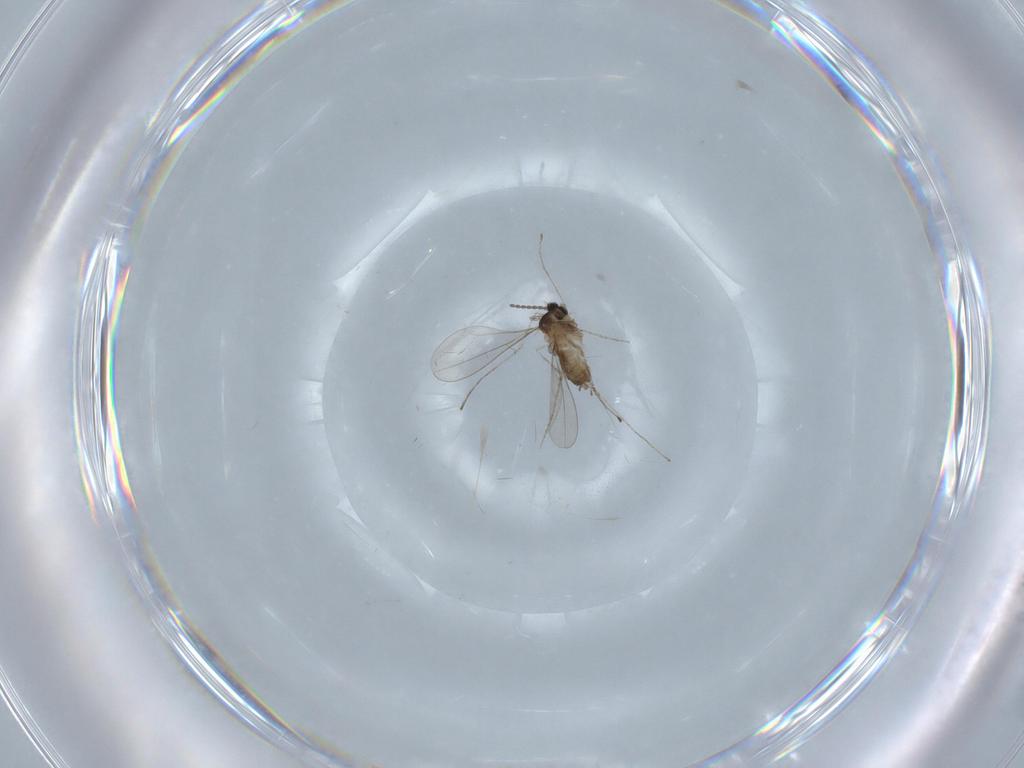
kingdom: Animalia
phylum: Arthropoda
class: Insecta
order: Diptera
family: Cecidomyiidae
